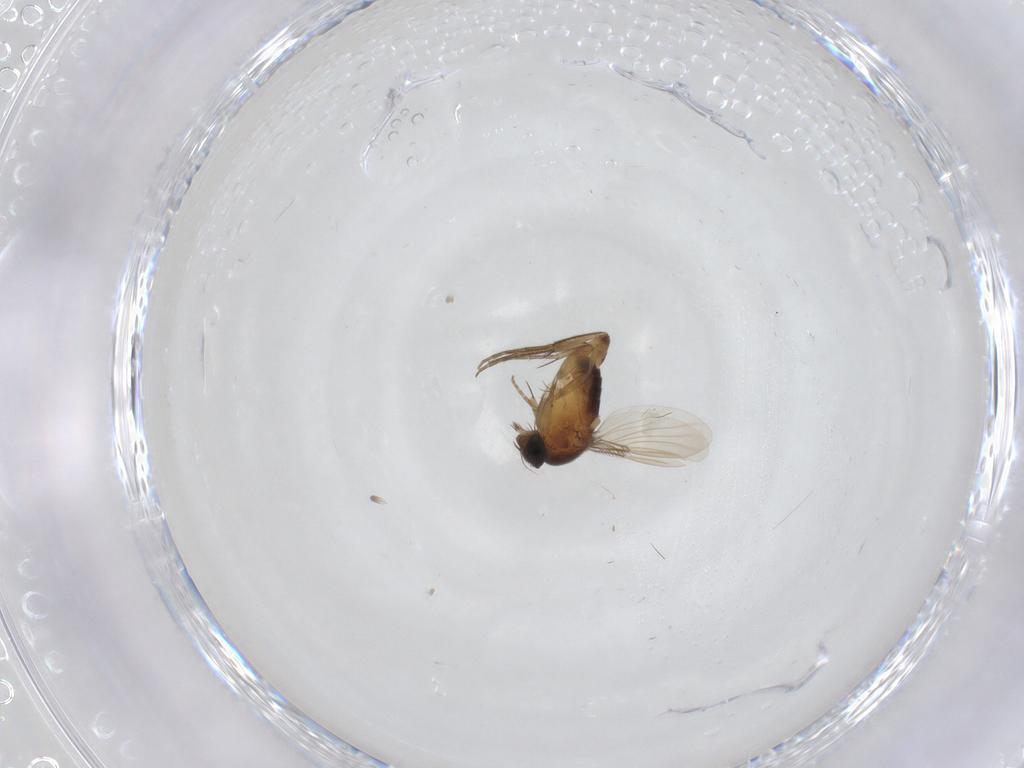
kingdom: Animalia
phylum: Arthropoda
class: Insecta
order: Diptera
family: Phoridae
